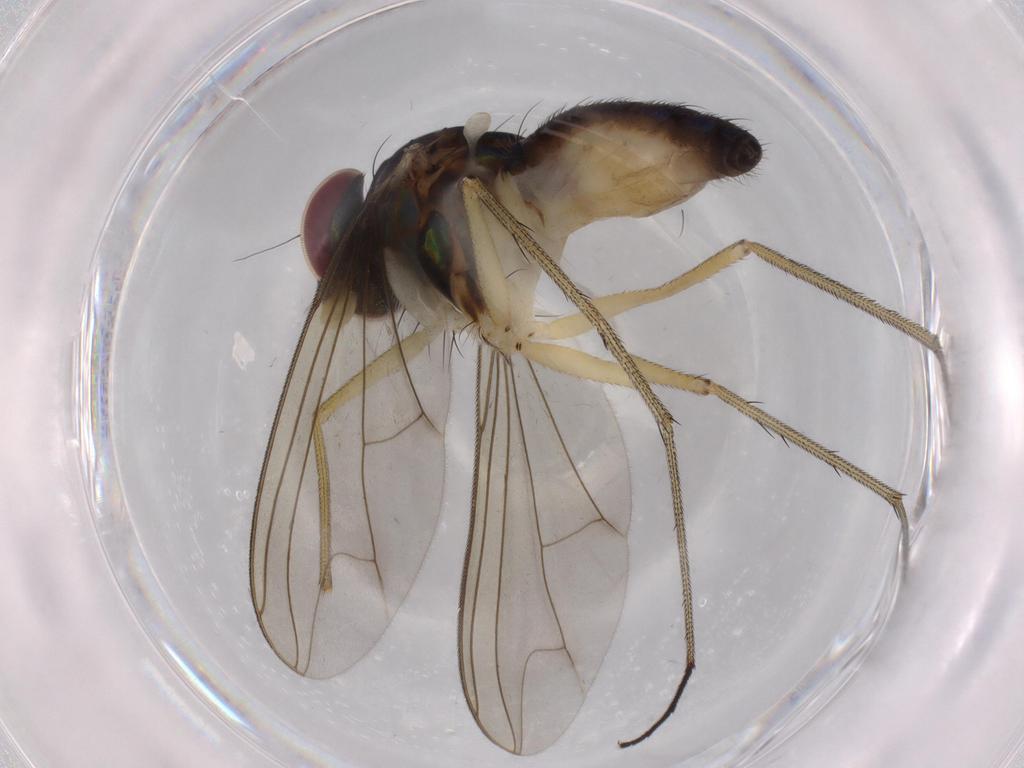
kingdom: Animalia
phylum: Arthropoda
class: Insecta
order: Diptera
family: Dolichopodidae
